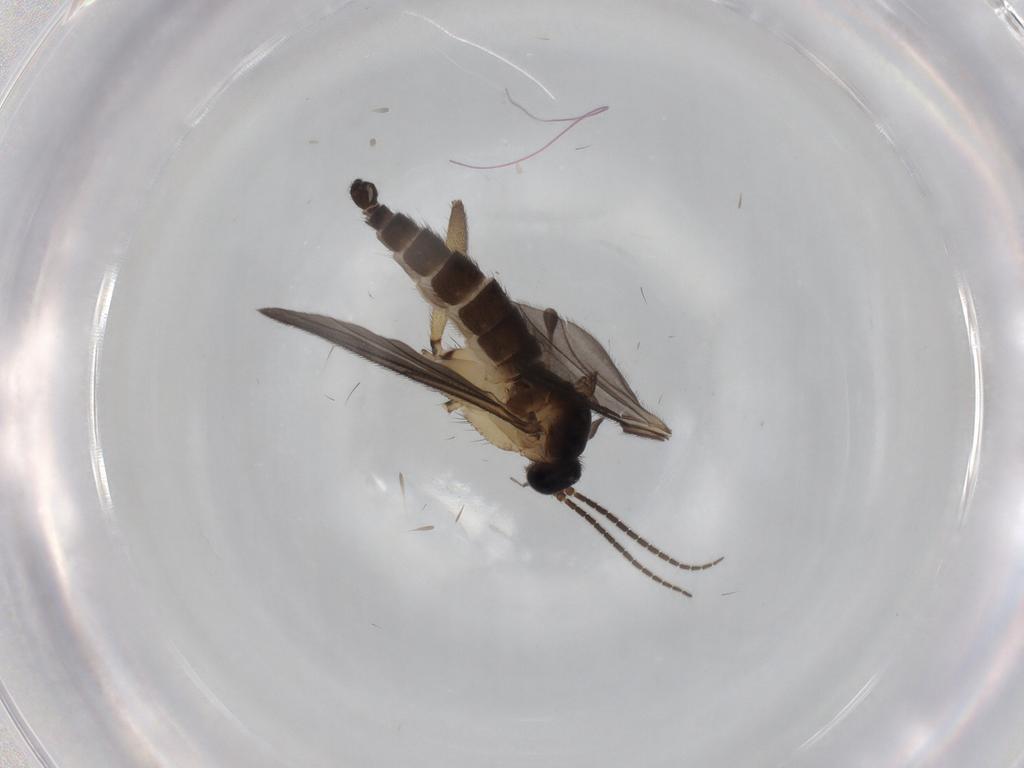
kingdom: Animalia
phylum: Arthropoda
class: Insecta
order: Diptera
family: Sciaridae
